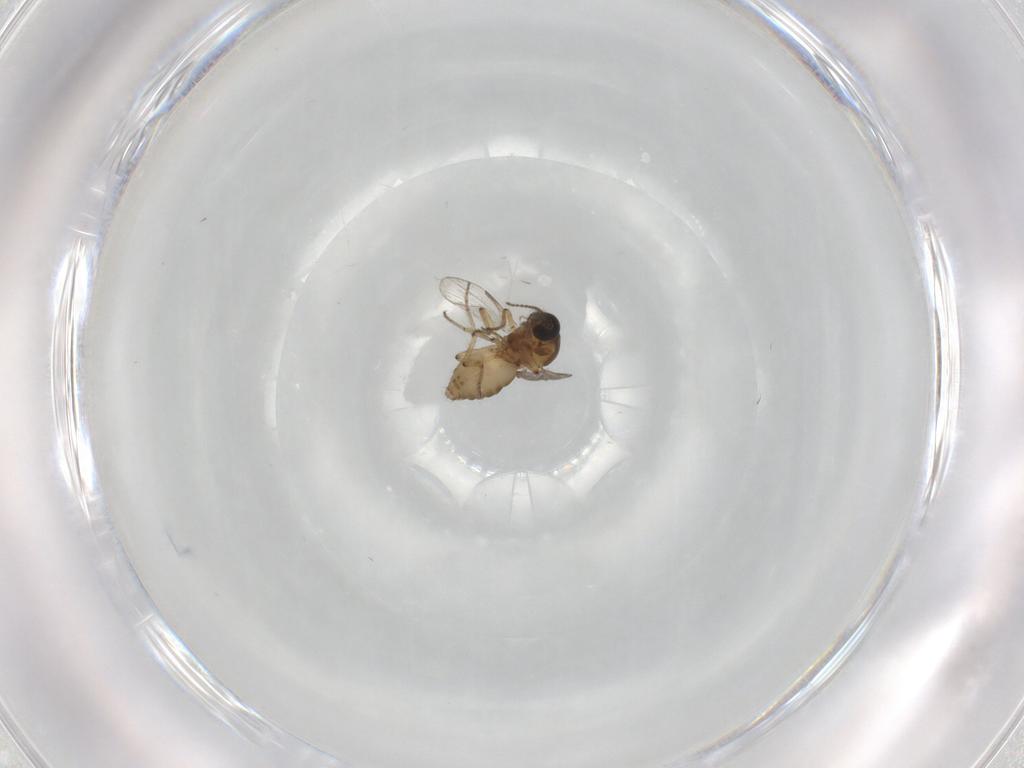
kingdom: Animalia
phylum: Arthropoda
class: Insecta
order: Diptera
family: Ceratopogonidae
